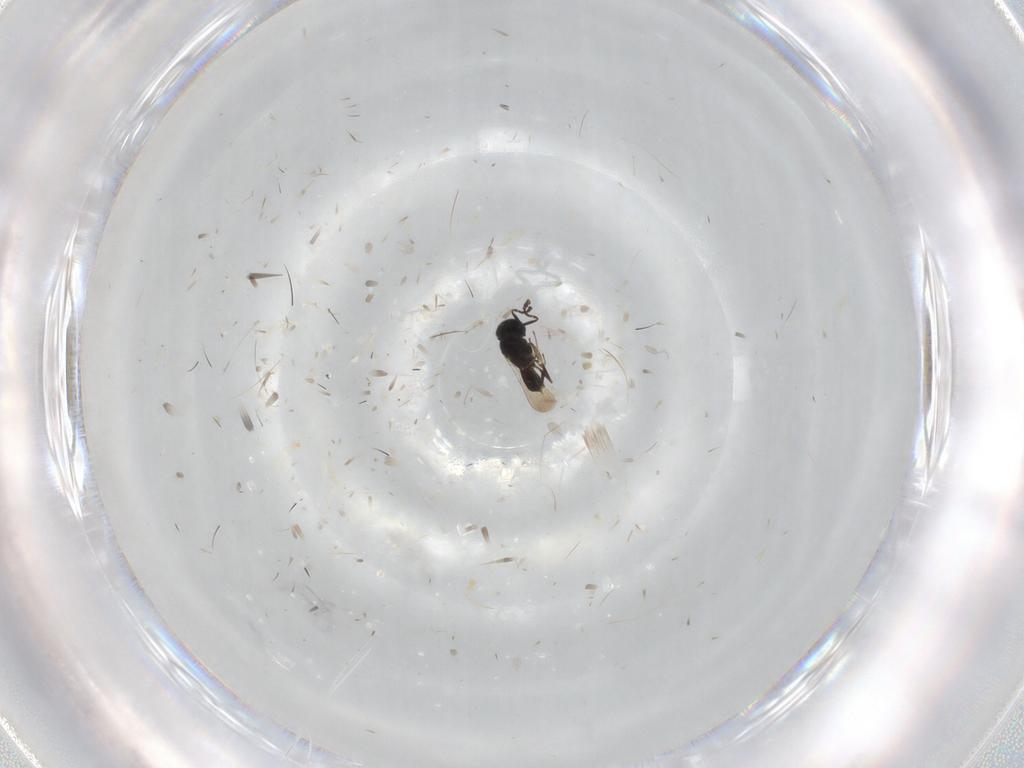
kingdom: Animalia
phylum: Arthropoda
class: Insecta
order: Hymenoptera
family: Scelionidae
